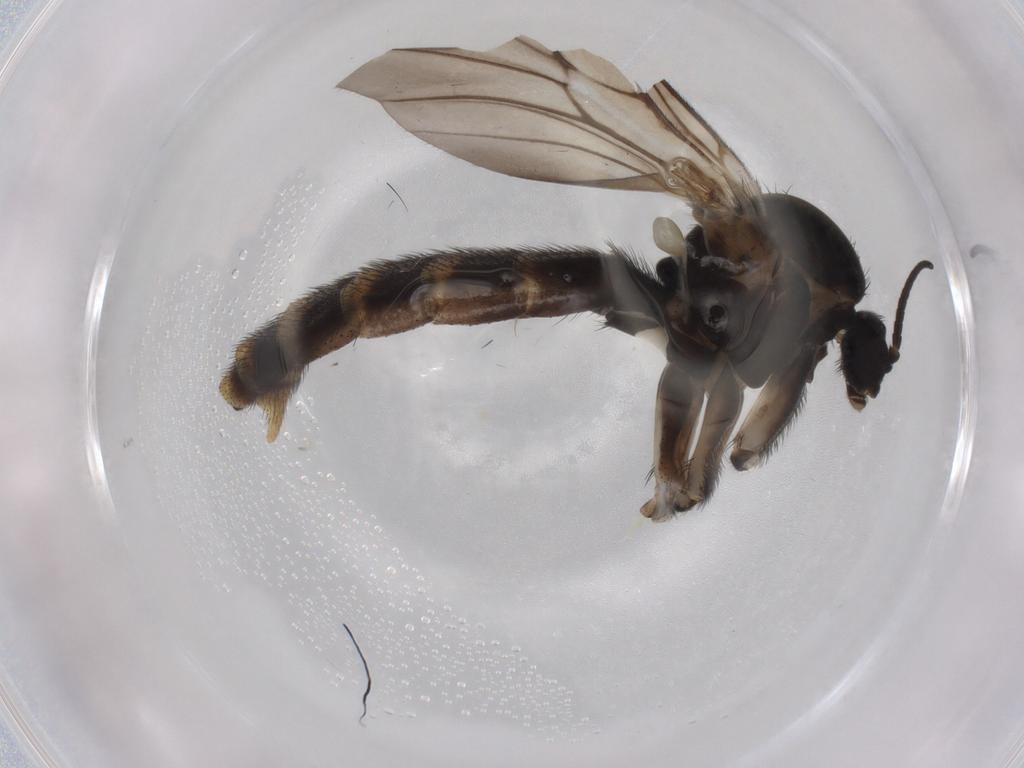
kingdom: Animalia
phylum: Arthropoda
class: Insecta
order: Diptera
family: Keroplatidae
